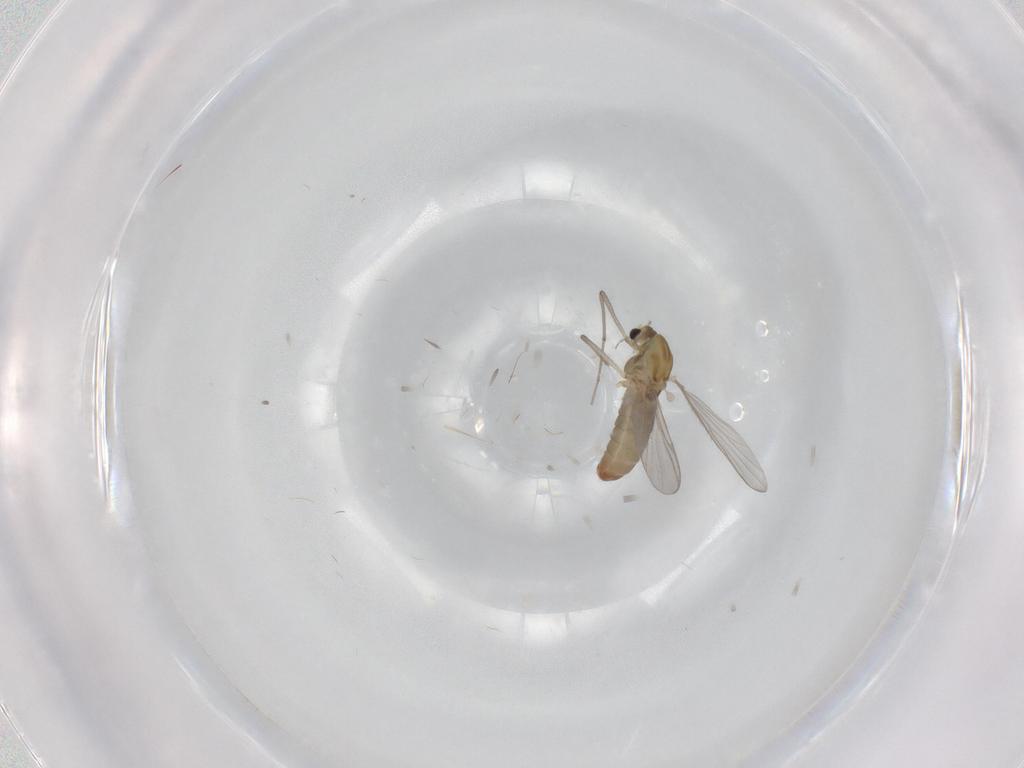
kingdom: Animalia
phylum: Arthropoda
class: Insecta
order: Diptera
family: Chironomidae
